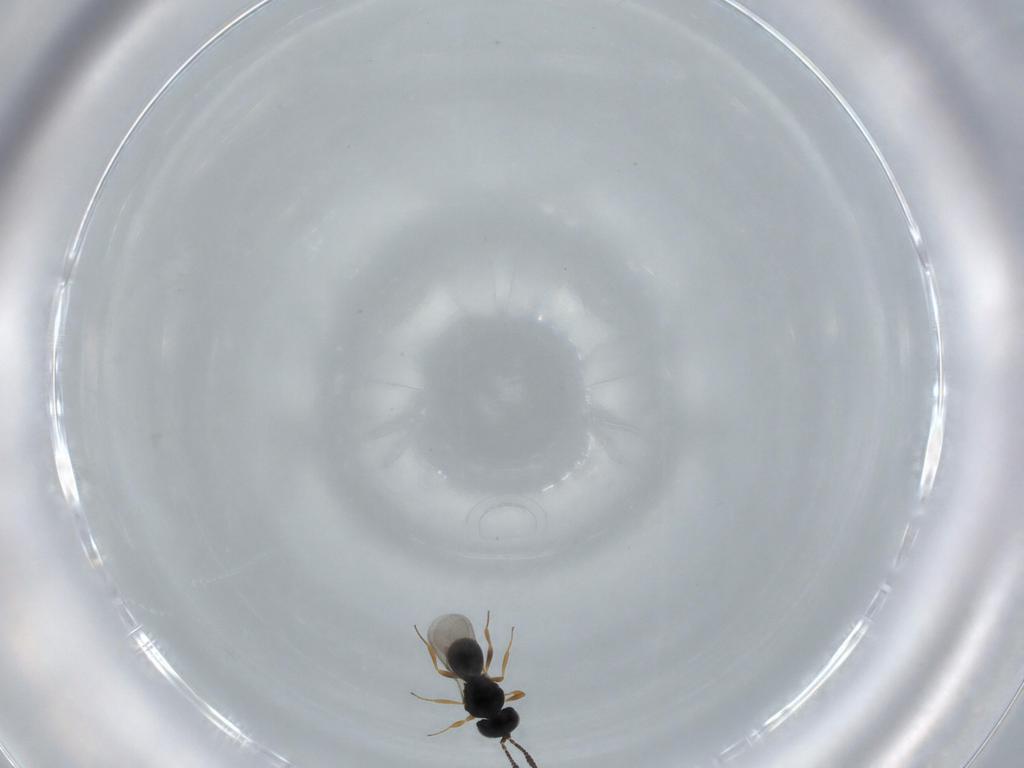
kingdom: Animalia
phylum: Arthropoda
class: Insecta
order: Hymenoptera
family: Scelionidae
